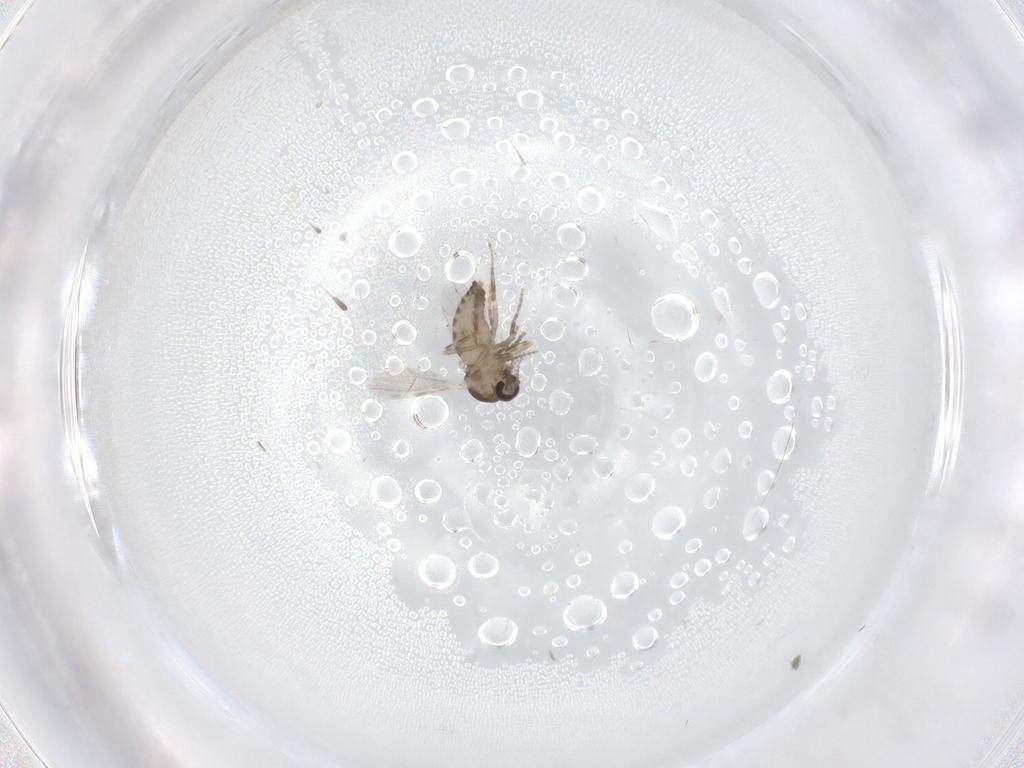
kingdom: Animalia
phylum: Arthropoda
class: Insecta
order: Diptera
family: Ceratopogonidae
